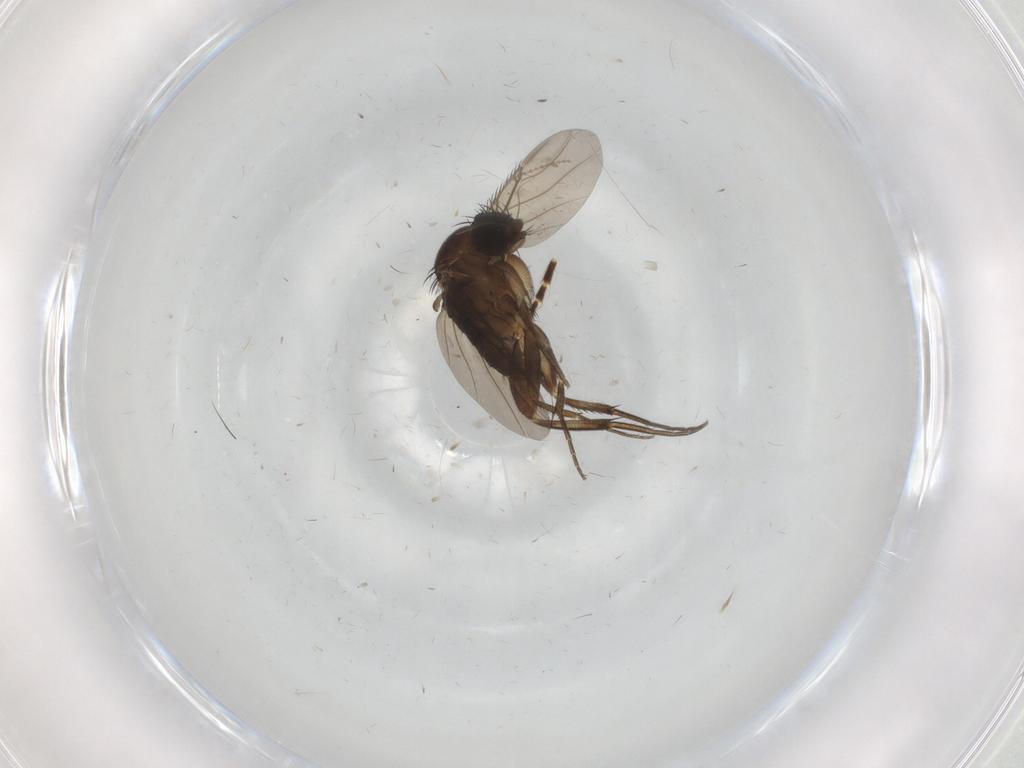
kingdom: Animalia
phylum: Arthropoda
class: Insecta
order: Diptera
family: Phoridae
